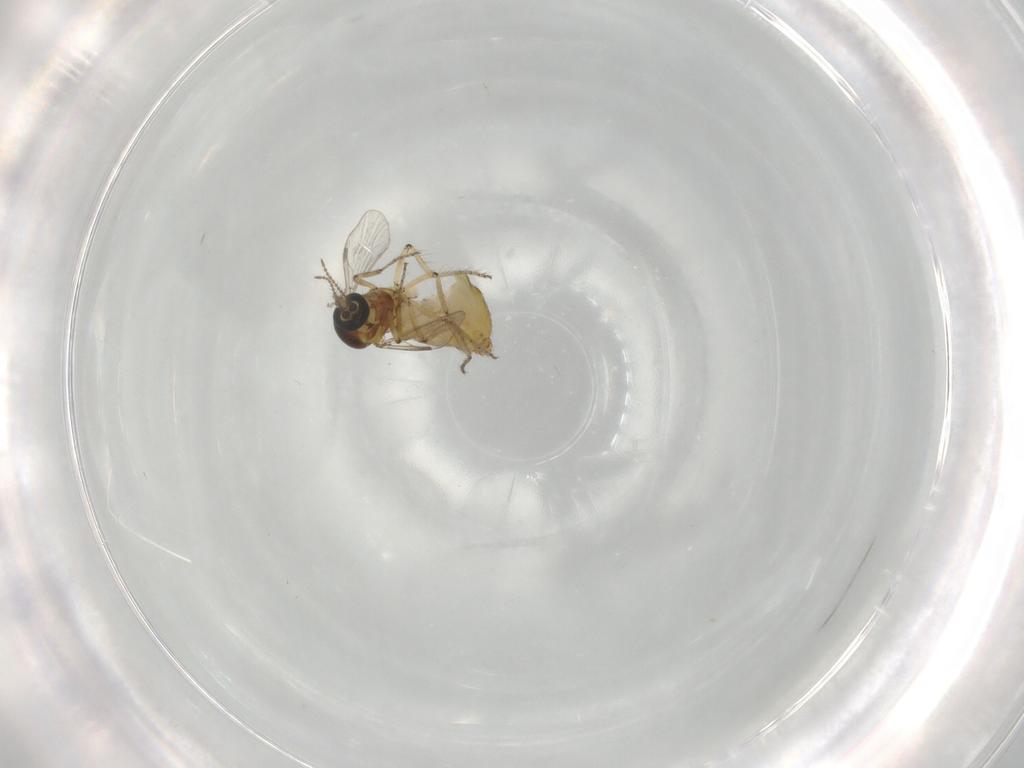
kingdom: Animalia
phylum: Arthropoda
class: Insecta
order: Diptera
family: Ceratopogonidae
